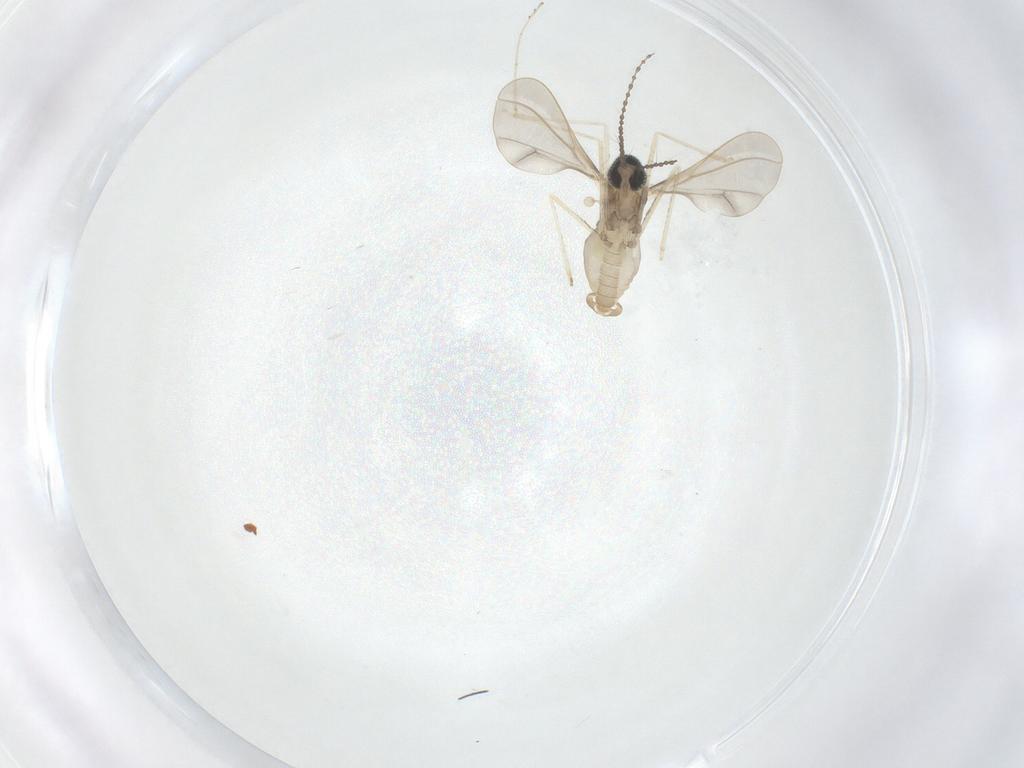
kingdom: Animalia
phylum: Arthropoda
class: Insecta
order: Diptera
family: Cecidomyiidae
